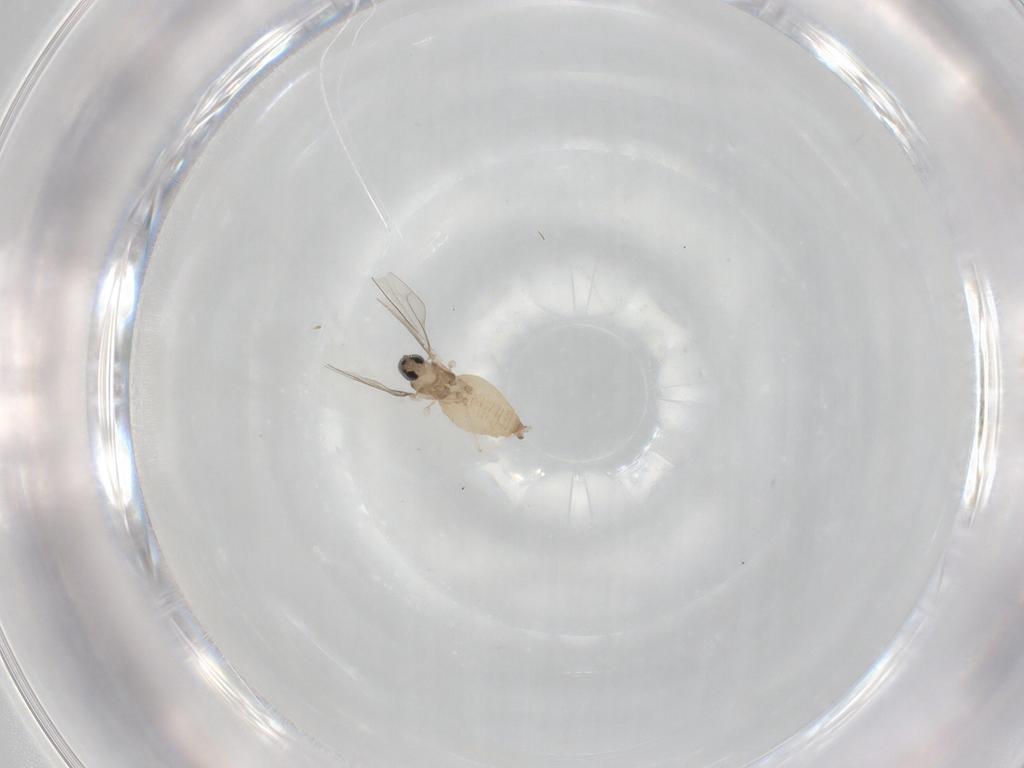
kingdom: Animalia
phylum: Arthropoda
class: Insecta
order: Diptera
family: Cecidomyiidae
